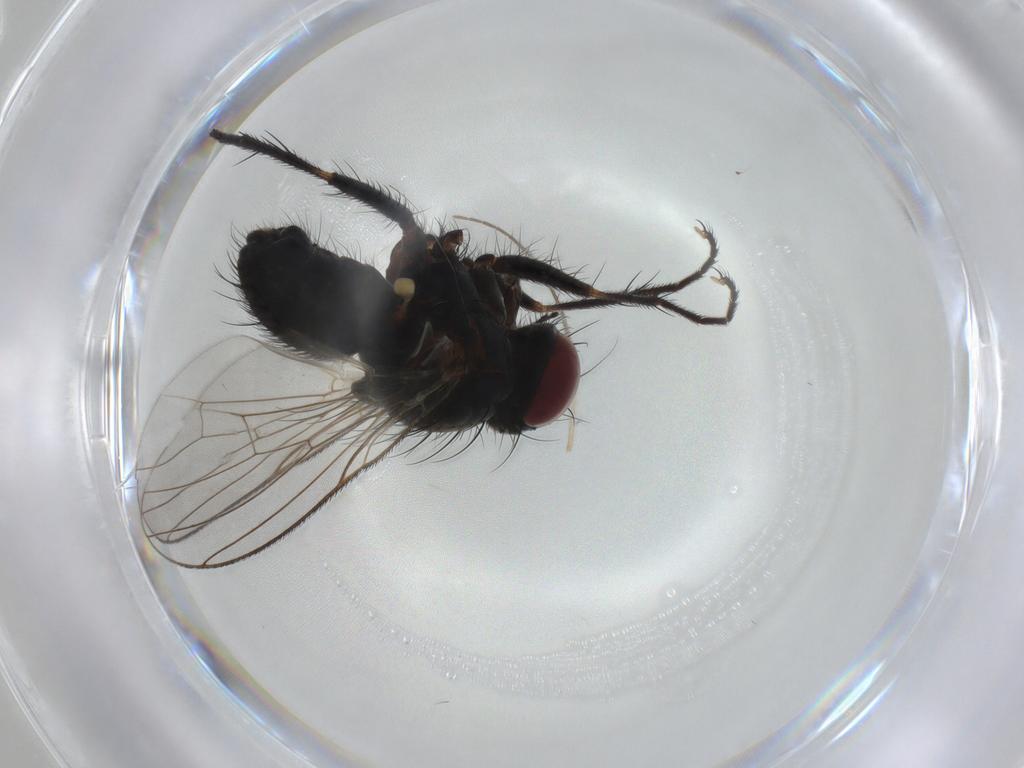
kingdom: Animalia
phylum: Arthropoda
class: Insecta
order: Diptera
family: Muscidae
